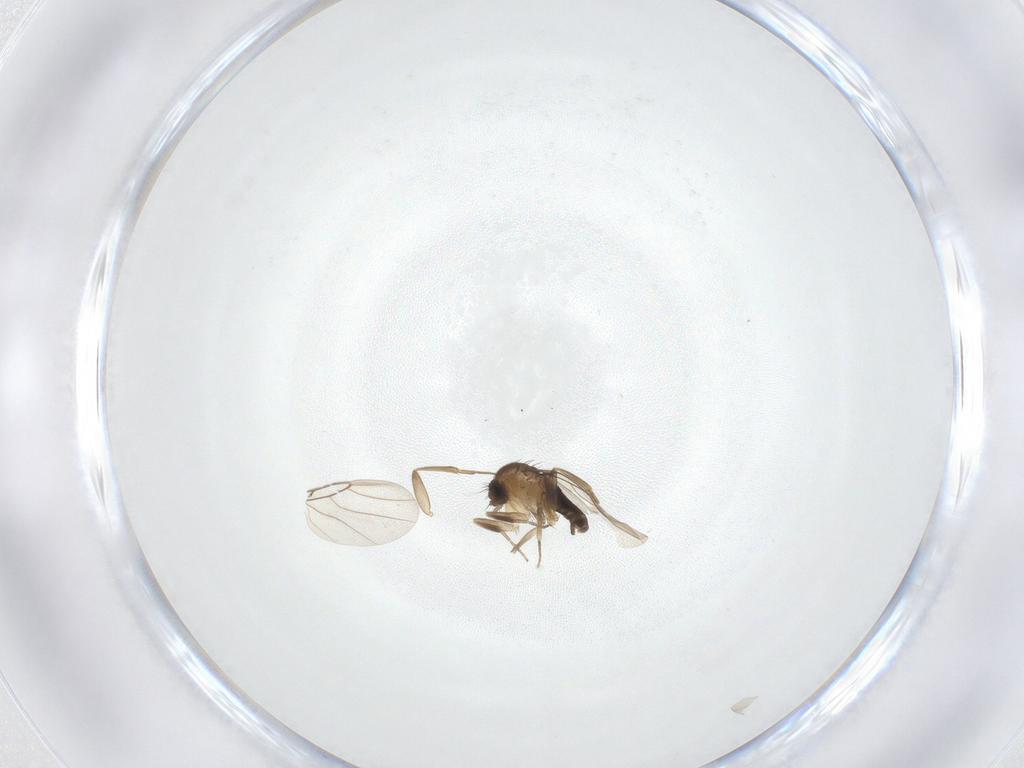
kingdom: Animalia
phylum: Arthropoda
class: Insecta
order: Diptera
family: Phoridae
